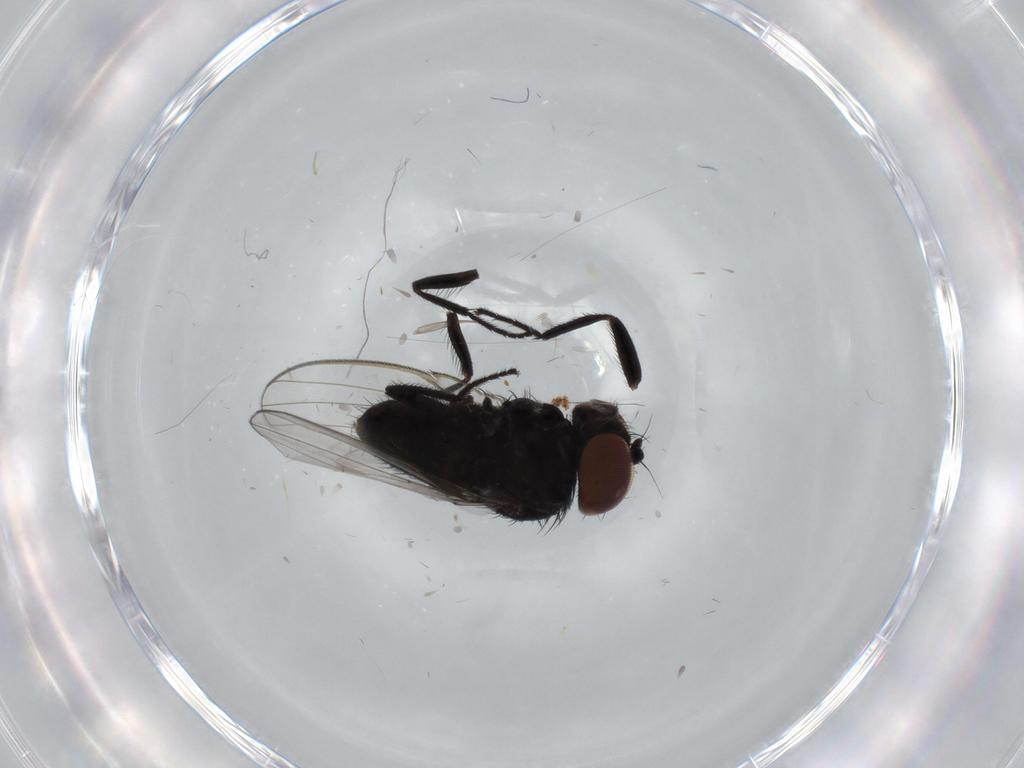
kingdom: Animalia
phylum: Arthropoda
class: Insecta
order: Diptera
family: Milichiidae
